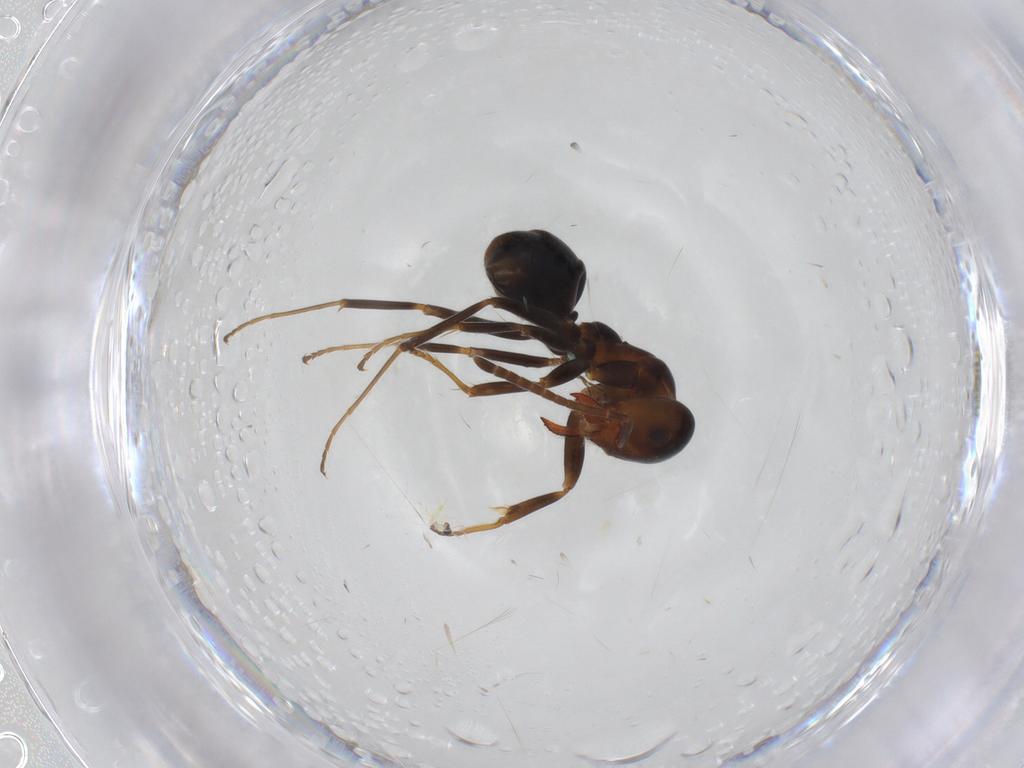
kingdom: Animalia
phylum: Arthropoda
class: Insecta
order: Hymenoptera
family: Formicidae
